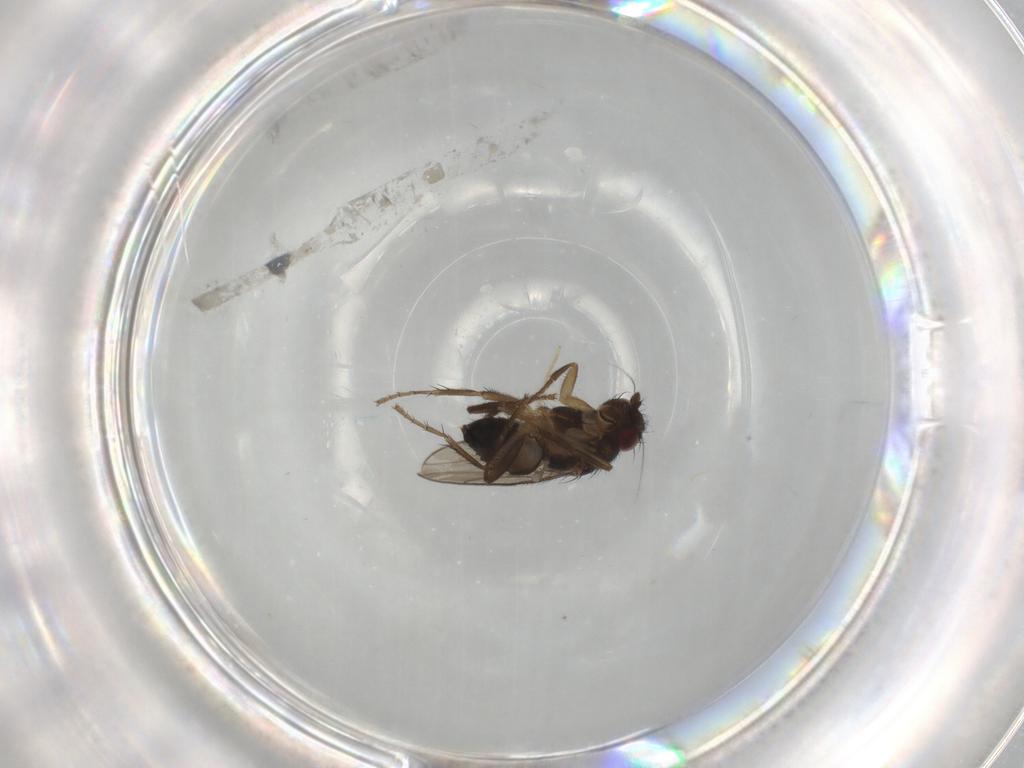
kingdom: Animalia
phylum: Arthropoda
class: Insecta
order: Diptera
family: Sphaeroceridae
